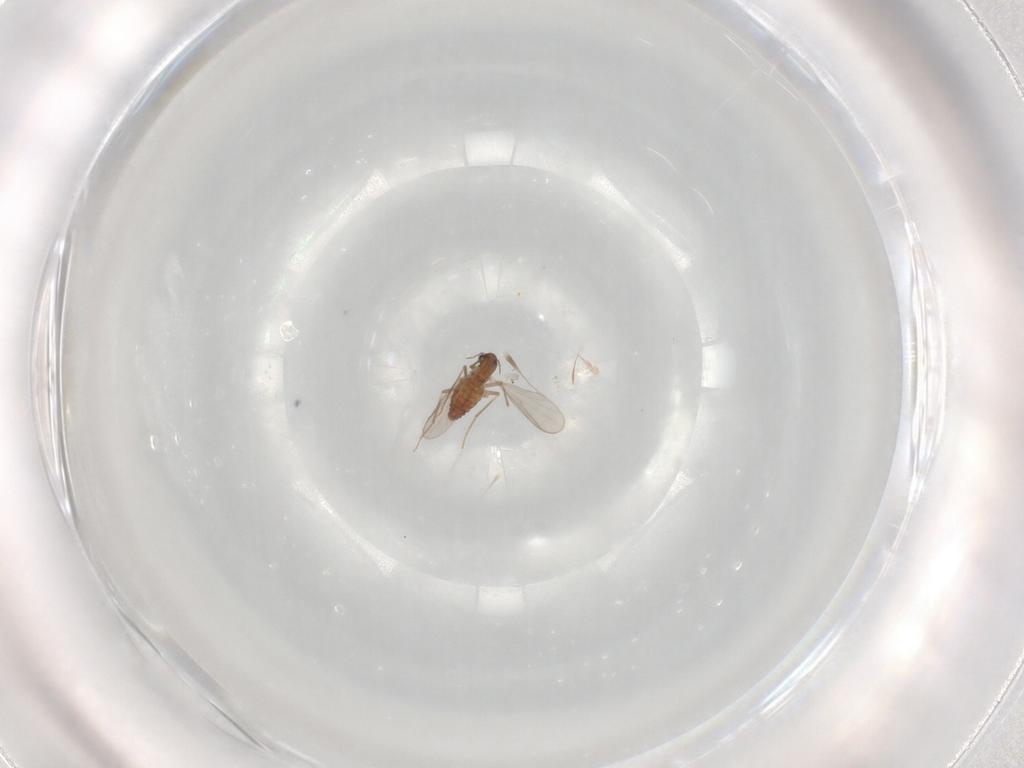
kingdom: Animalia
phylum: Arthropoda
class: Insecta
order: Diptera
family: Chironomidae
